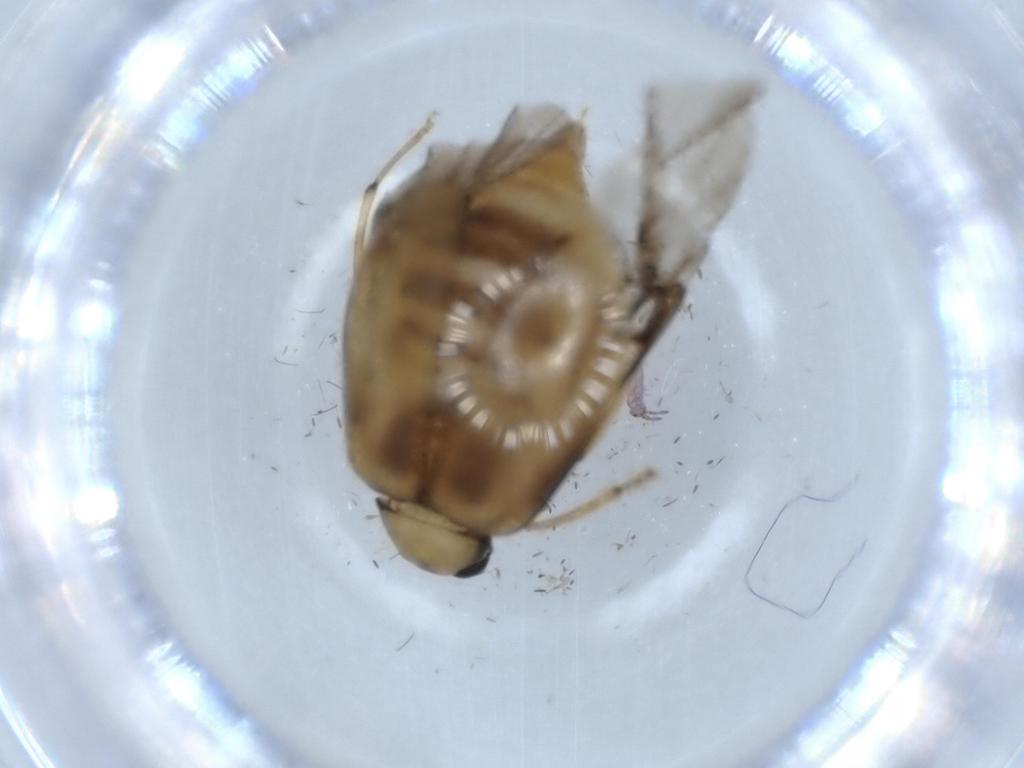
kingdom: Animalia
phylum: Arthropoda
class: Insecta
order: Coleoptera
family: Chrysomelidae
